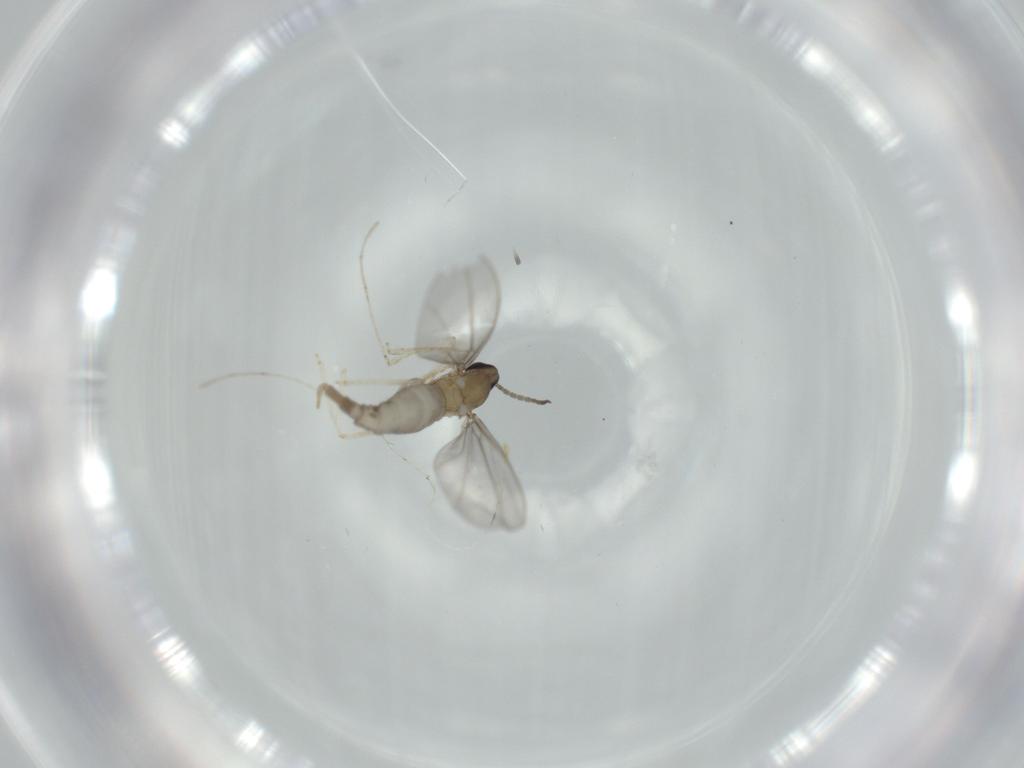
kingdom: Animalia
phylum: Arthropoda
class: Insecta
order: Diptera
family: Cecidomyiidae
